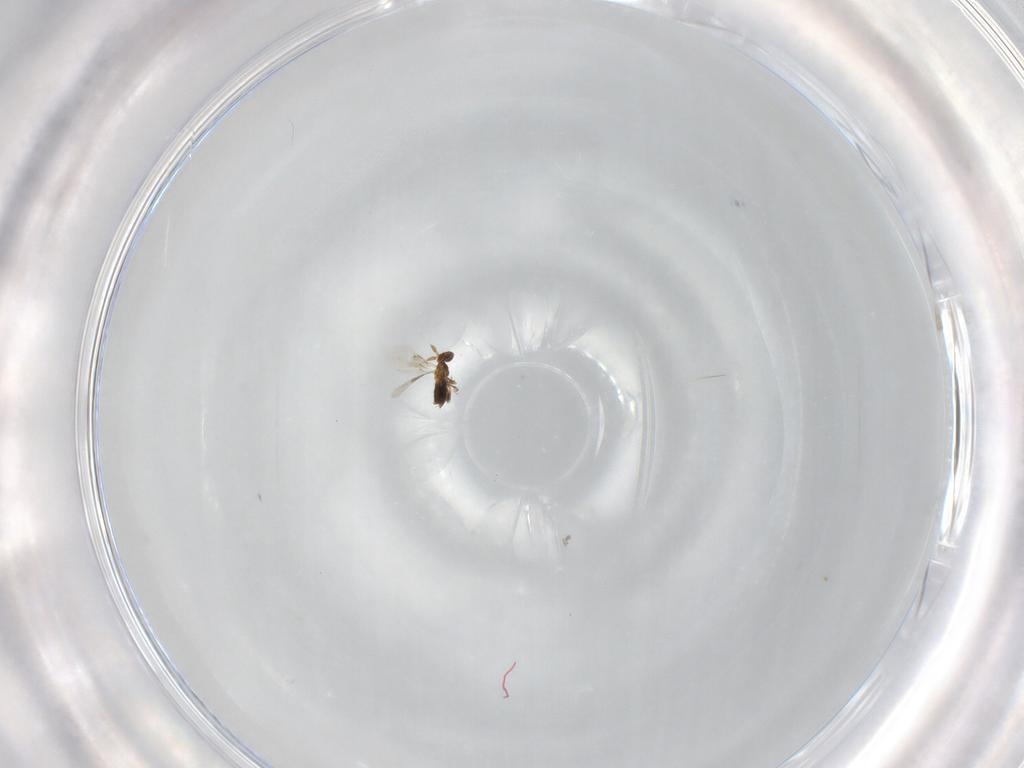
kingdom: Animalia
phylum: Arthropoda
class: Insecta
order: Hymenoptera
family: Trichogrammatidae
